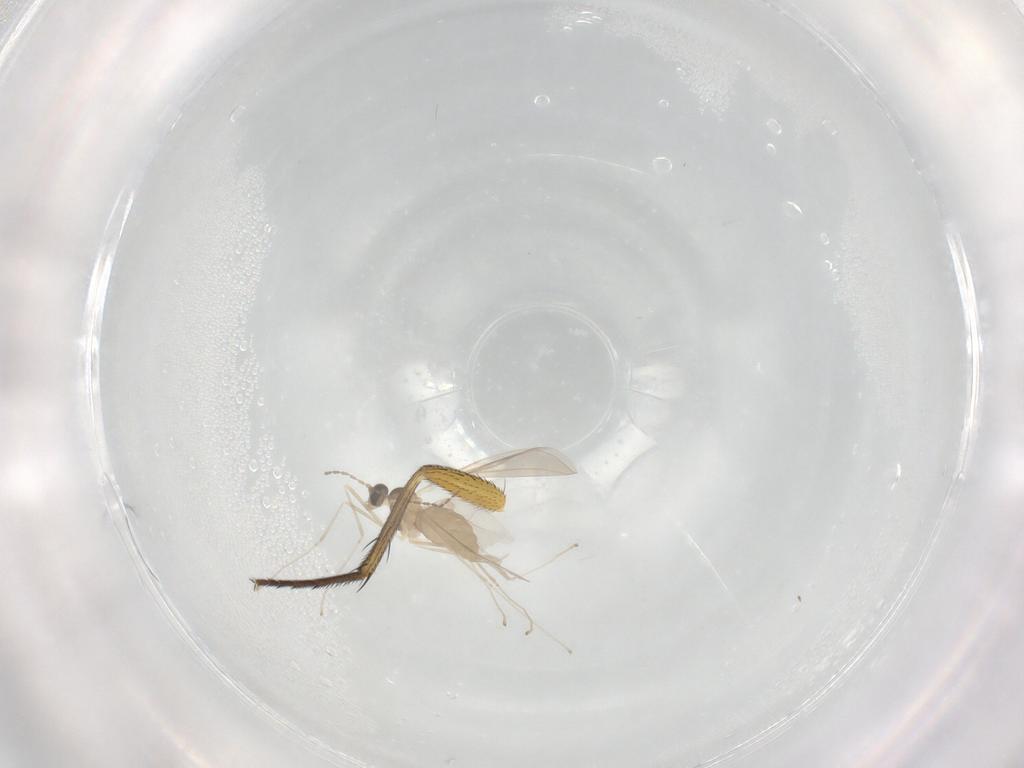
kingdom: Animalia
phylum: Arthropoda
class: Insecta
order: Diptera
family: Cecidomyiidae
